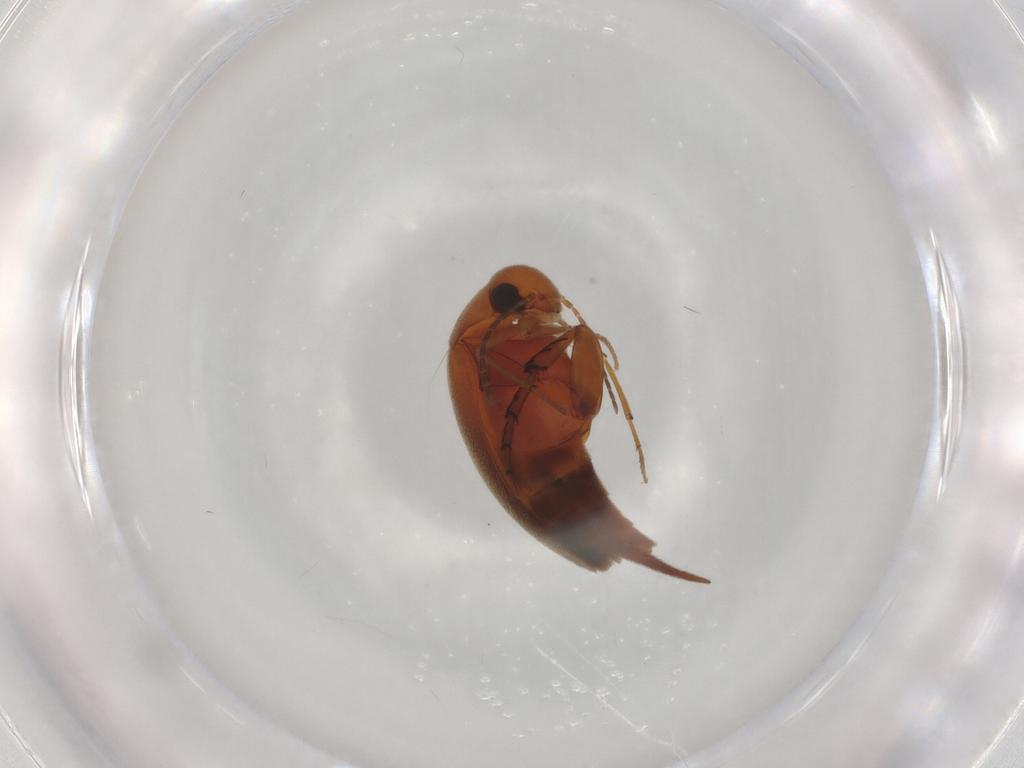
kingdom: Animalia
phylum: Arthropoda
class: Insecta
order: Coleoptera
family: Mordellidae
